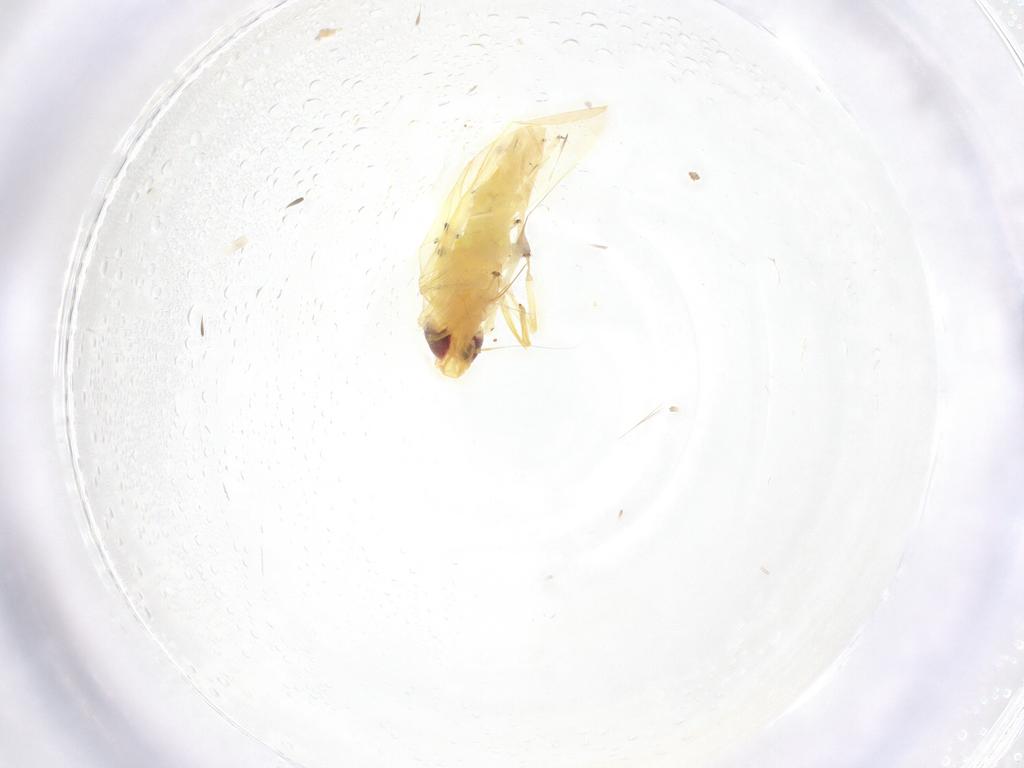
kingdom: Animalia
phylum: Arthropoda
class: Insecta
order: Hemiptera
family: Cicadellidae
